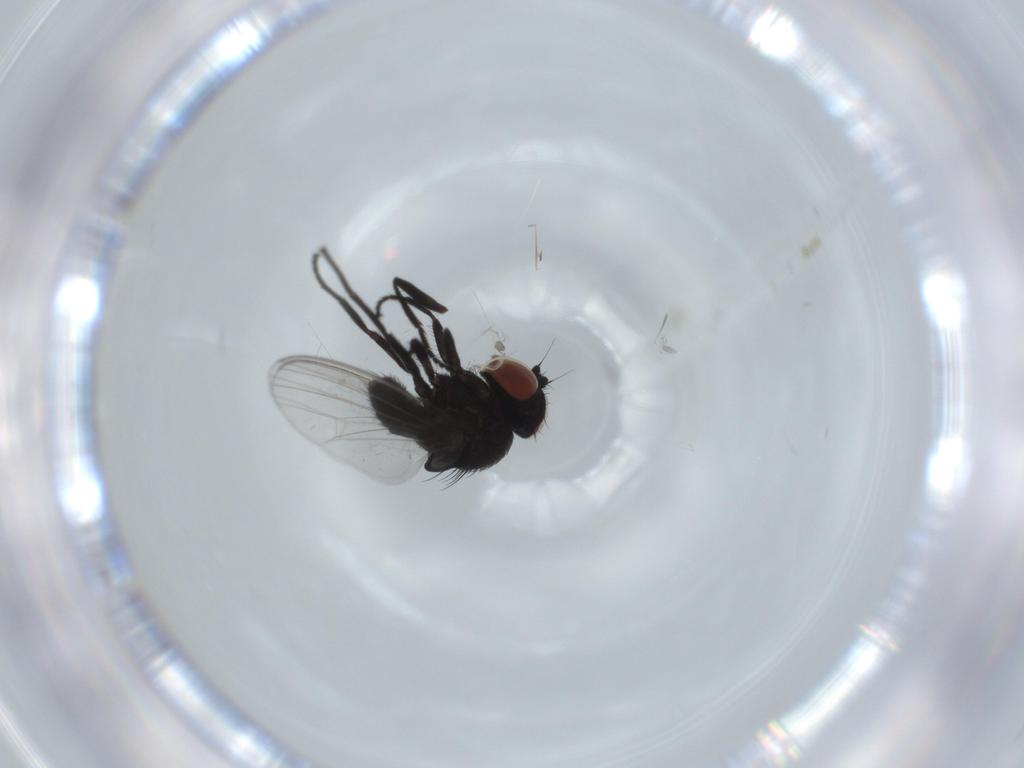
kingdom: Animalia
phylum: Arthropoda
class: Insecta
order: Diptera
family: Milichiidae
